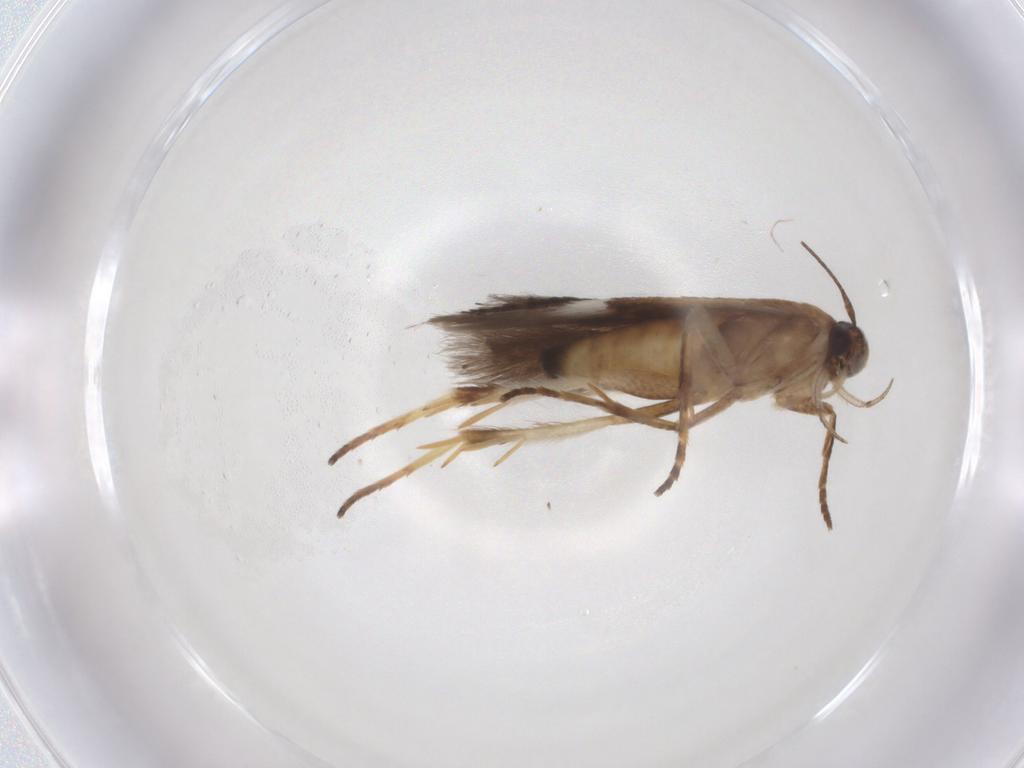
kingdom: Animalia
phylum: Arthropoda
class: Insecta
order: Lepidoptera
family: Gelechiidae
